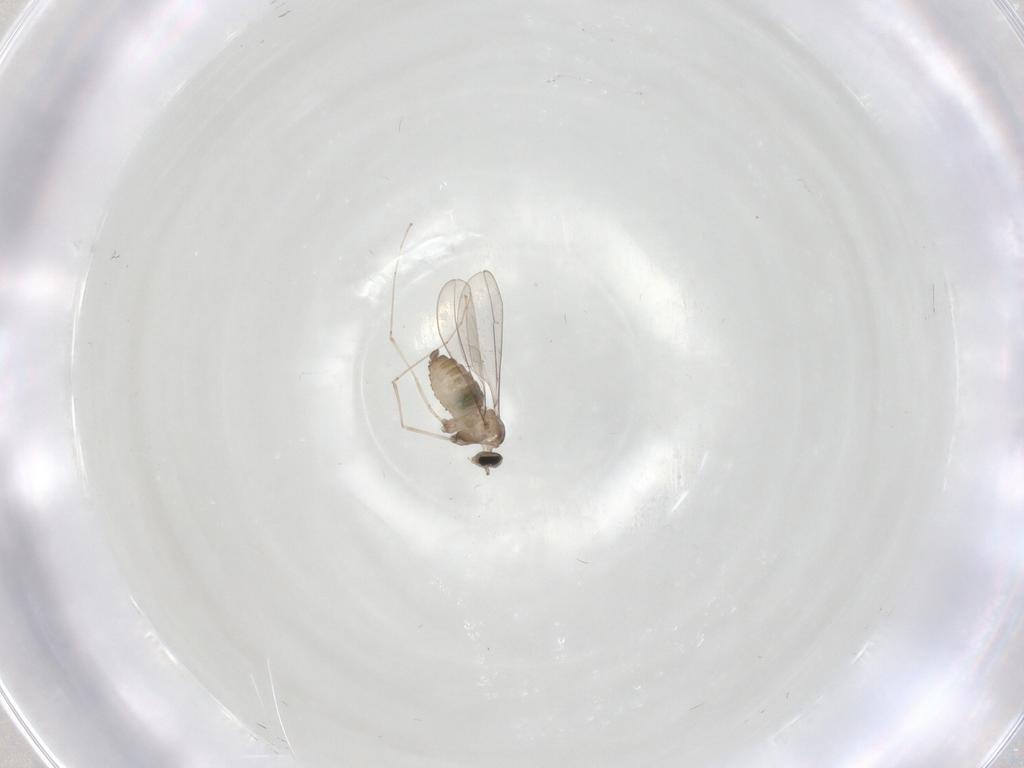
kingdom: Animalia
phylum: Arthropoda
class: Insecta
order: Diptera
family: Cecidomyiidae
